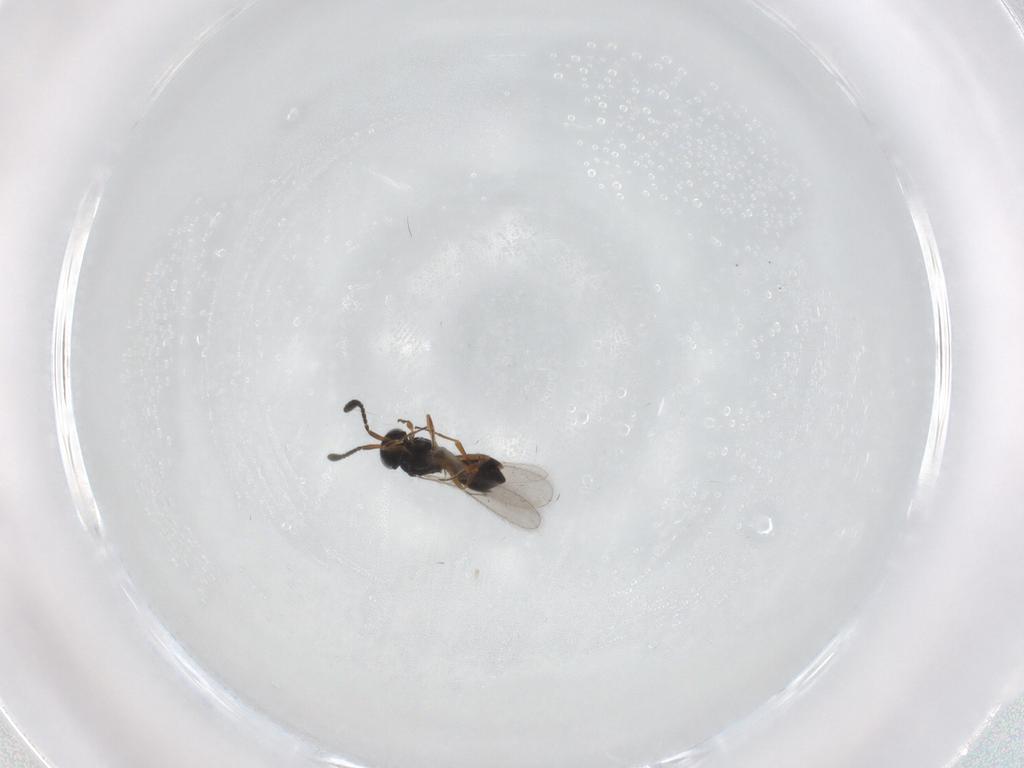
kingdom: Animalia
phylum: Arthropoda
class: Insecta
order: Hymenoptera
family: Scelionidae
